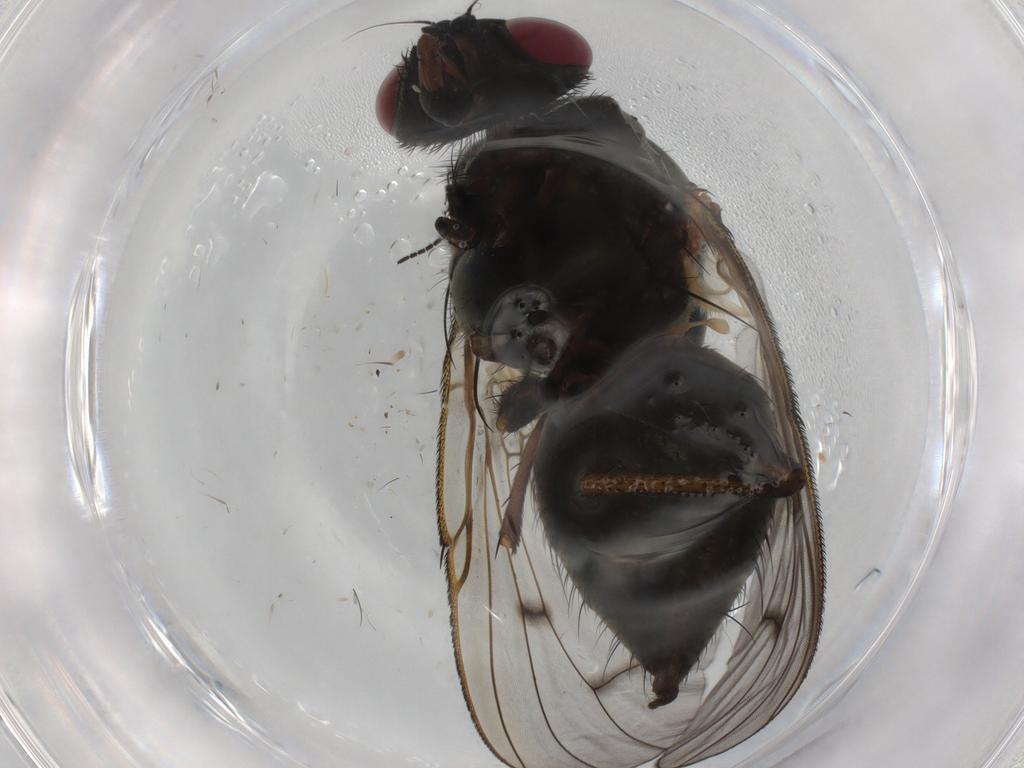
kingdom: Animalia
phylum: Arthropoda
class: Insecta
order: Diptera
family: Muscidae
